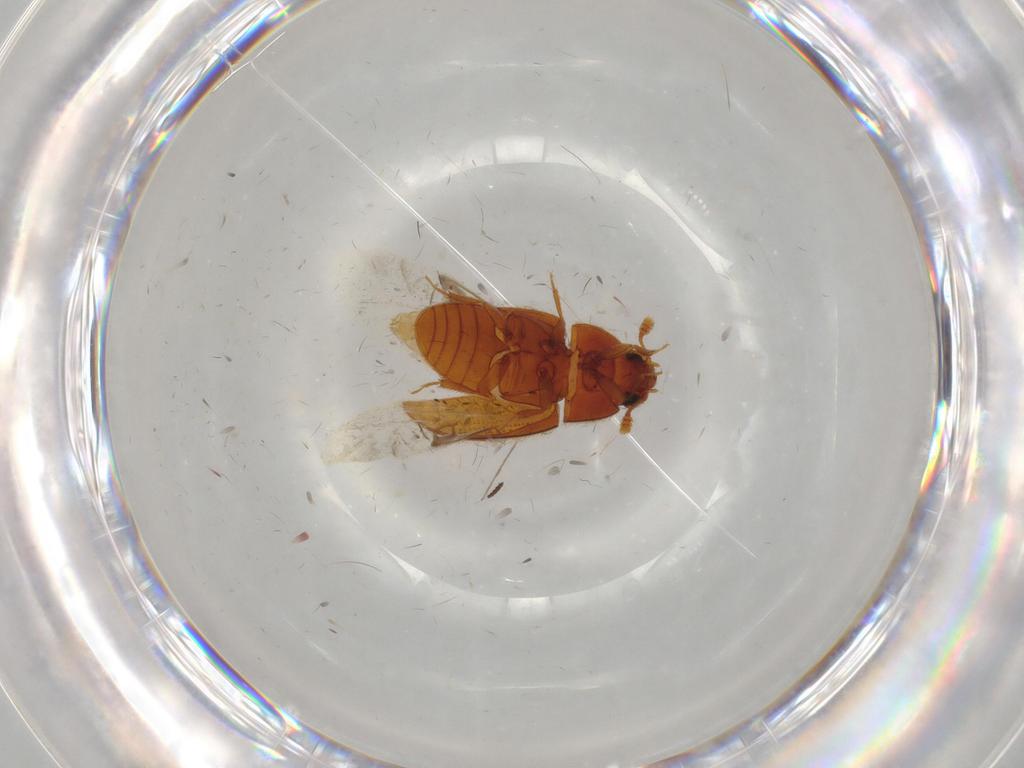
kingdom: Animalia
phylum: Arthropoda
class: Insecta
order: Coleoptera
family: Biphyllidae
